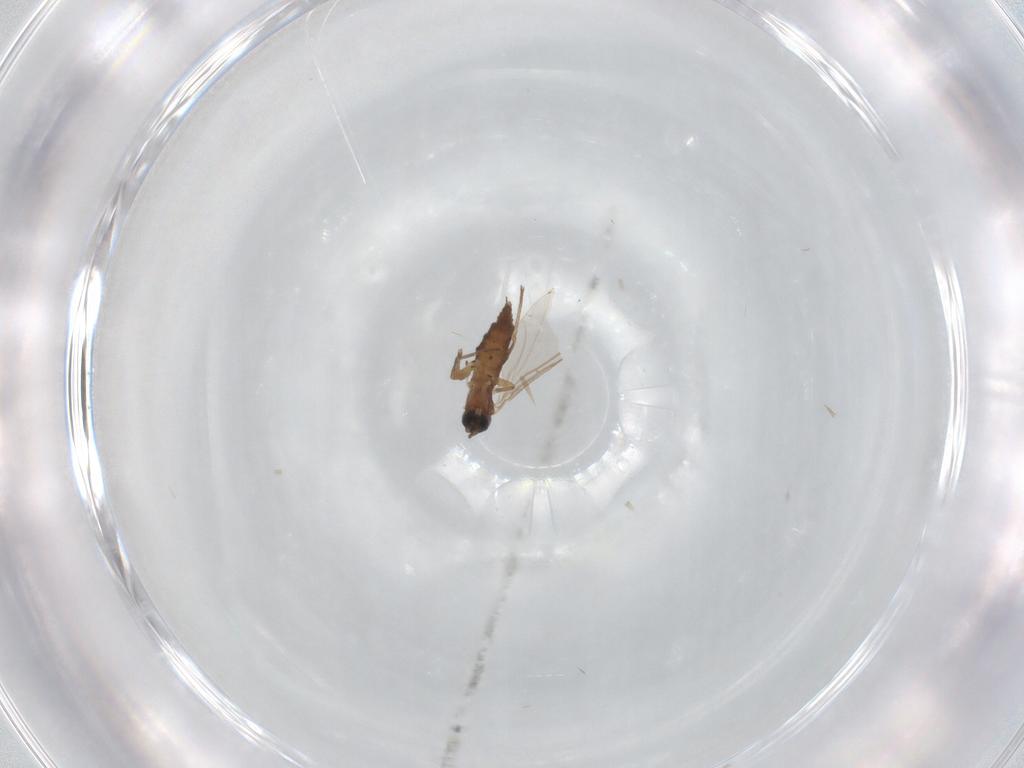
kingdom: Animalia
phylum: Arthropoda
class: Insecta
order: Diptera
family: Sciaridae
